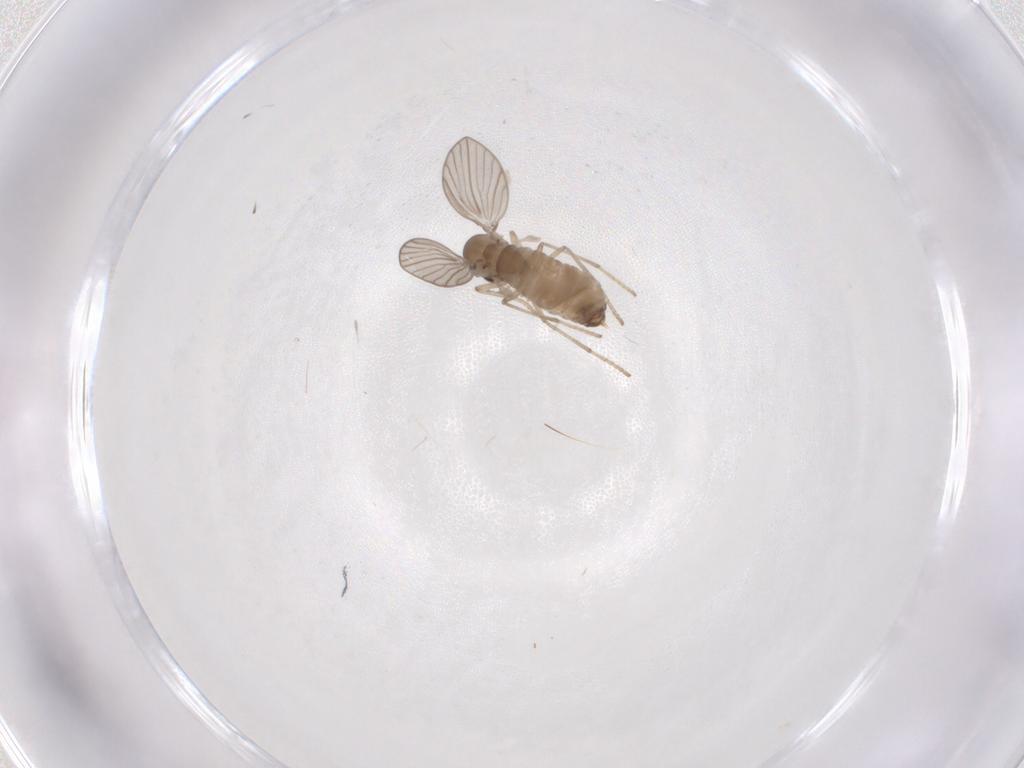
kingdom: Animalia
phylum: Arthropoda
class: Insecta
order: Diptera
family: Psychodidae
